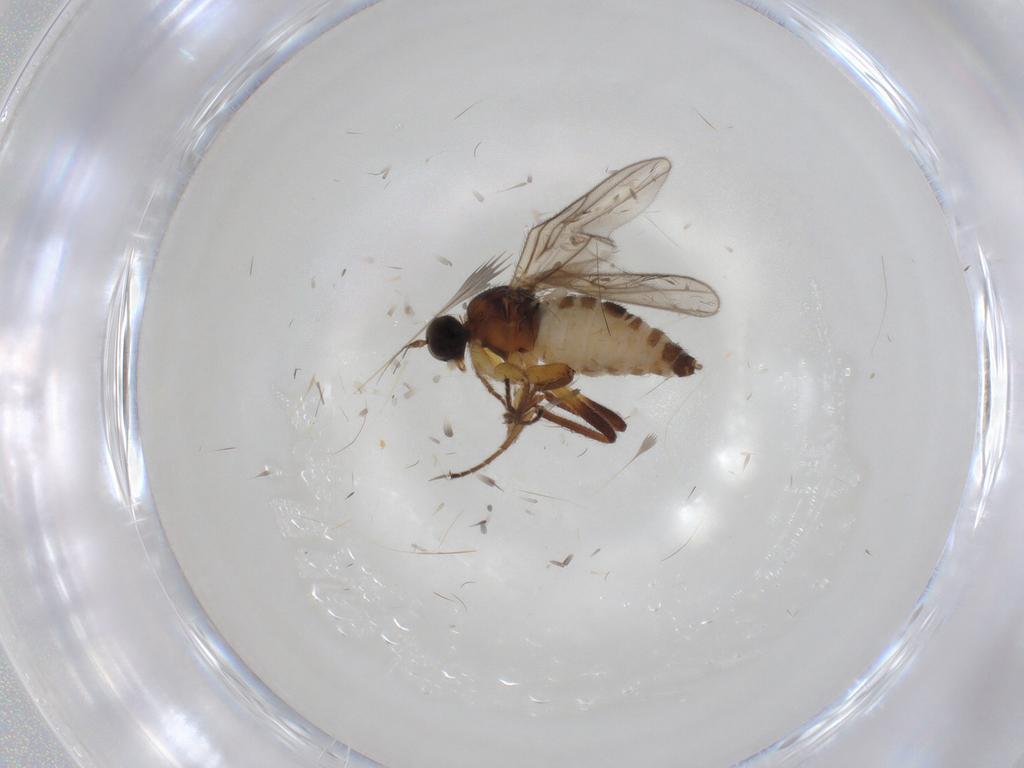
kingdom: Animalia
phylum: Arthropoda
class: Insecta
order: Diptera
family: Hybotidae
